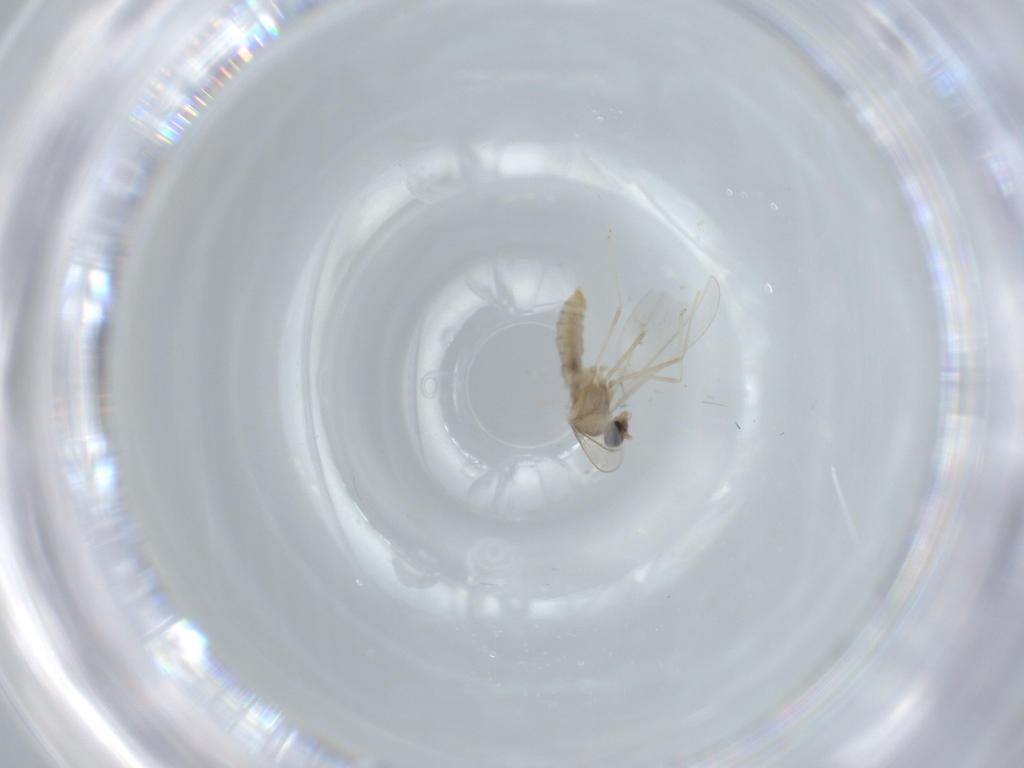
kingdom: Animalia
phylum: Arthropoda
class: Insecta
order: Diptera
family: Cecidomyiidae
